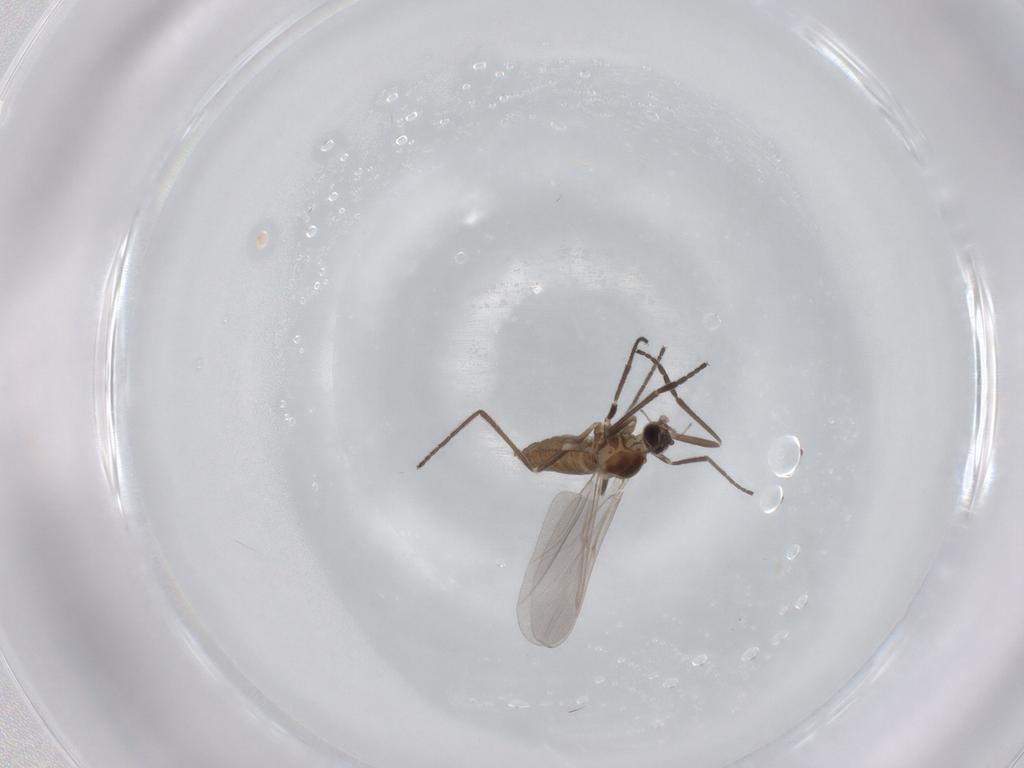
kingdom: Animalia
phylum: Arthropoda
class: Insecta
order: Diptera
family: Cecidomyiidae
